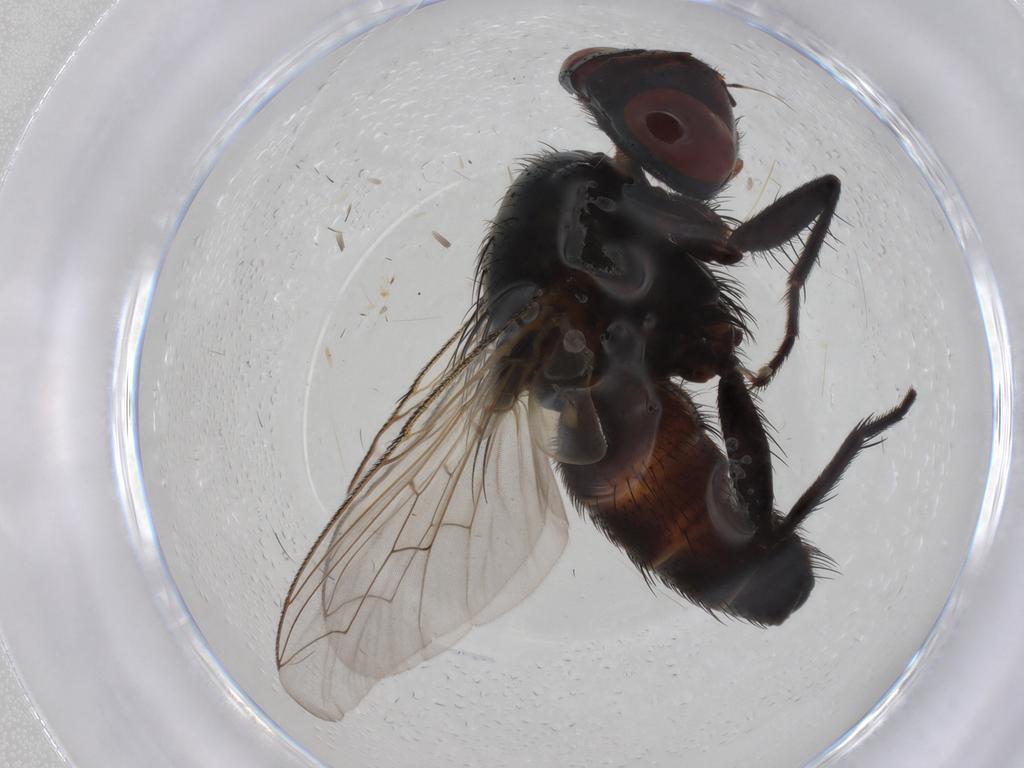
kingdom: Animalia
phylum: Arthropoda
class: Insecta
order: Diptera
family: Sarcophagidae
